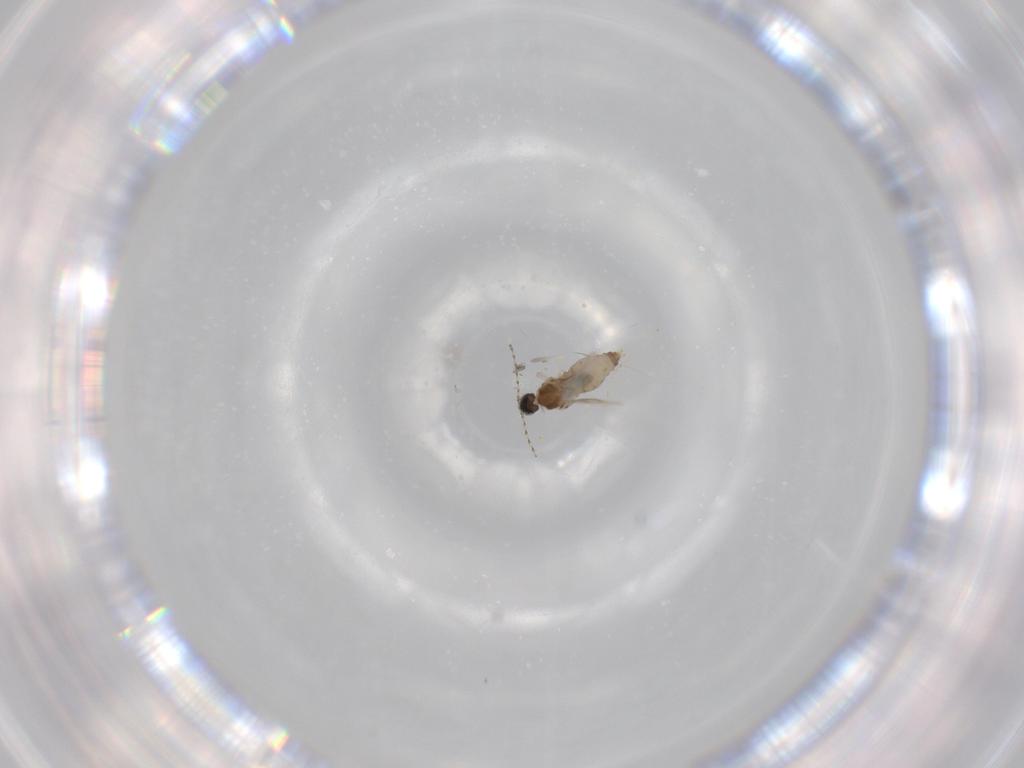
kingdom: Animalia
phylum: Arthropoda
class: Insecta
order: Diptera
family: Cecidomyiidae
